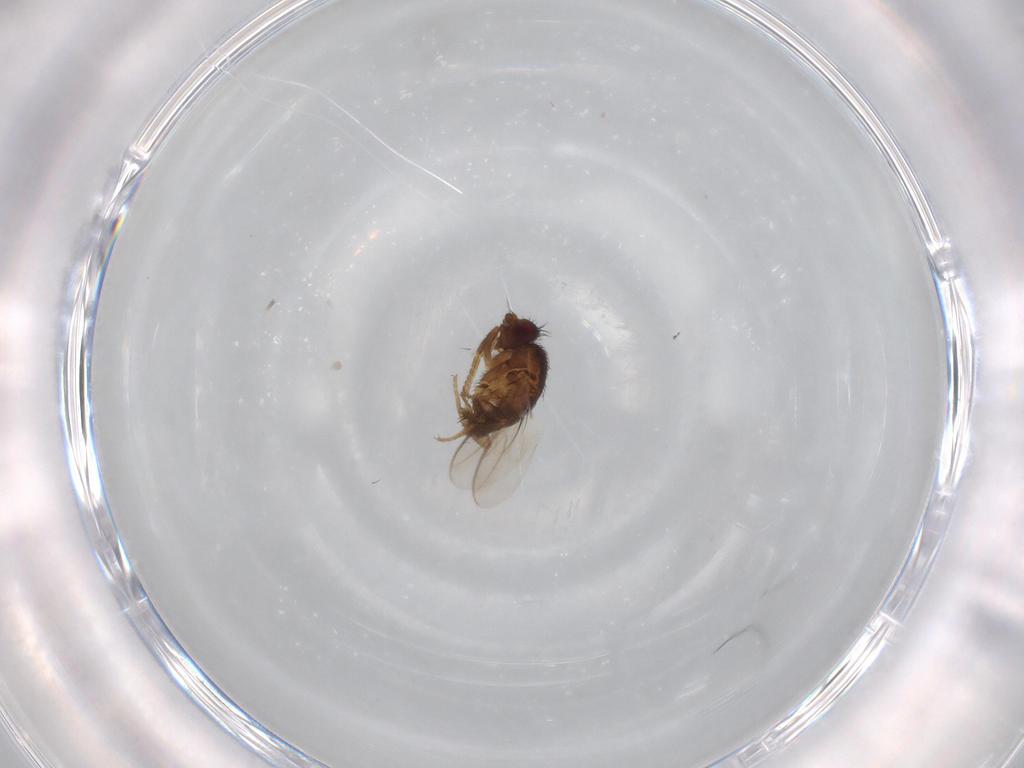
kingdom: Animalia
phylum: Arthropoda
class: Insecta
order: Diptera
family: Sphaeroceridae
